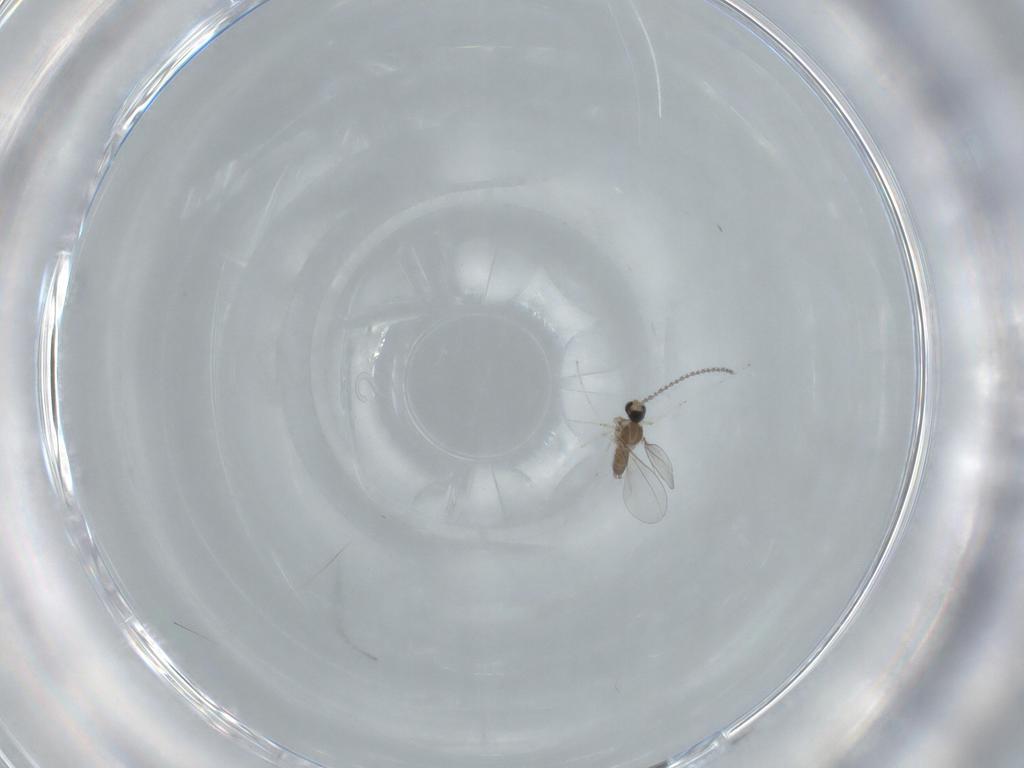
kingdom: Animalia
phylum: Arthropoda
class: Insecta
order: Diptera
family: Cecidomyiidae
